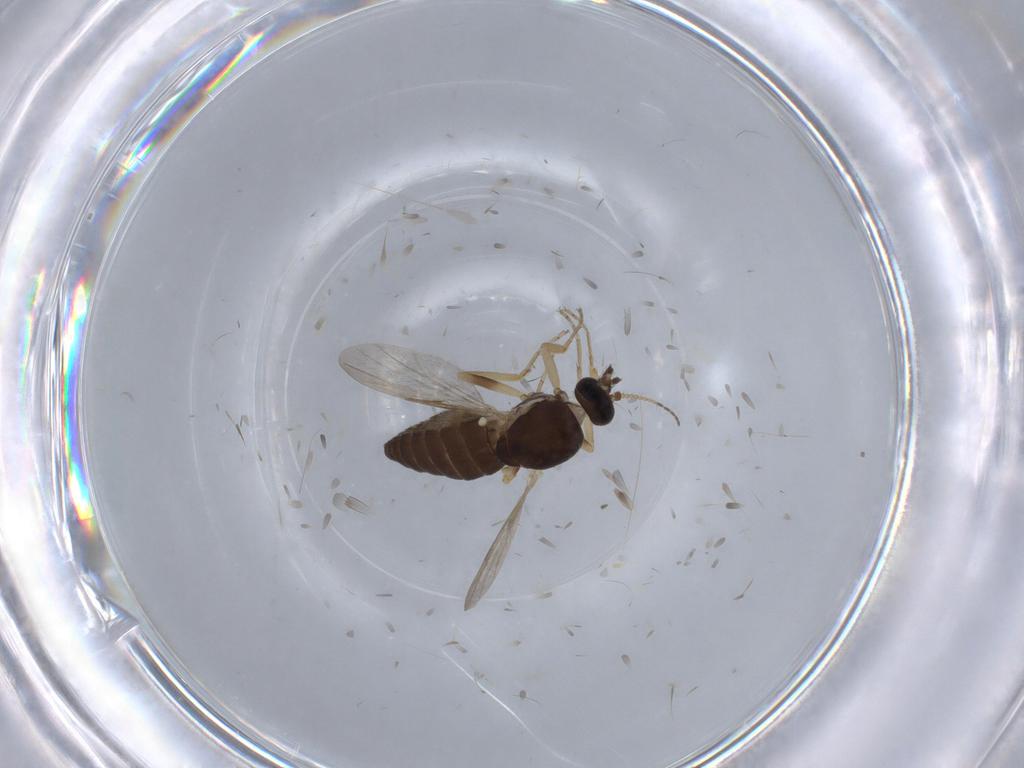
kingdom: Animalia
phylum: Arthropoda
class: Insecta
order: Diptera
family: Ceratopogonidae
